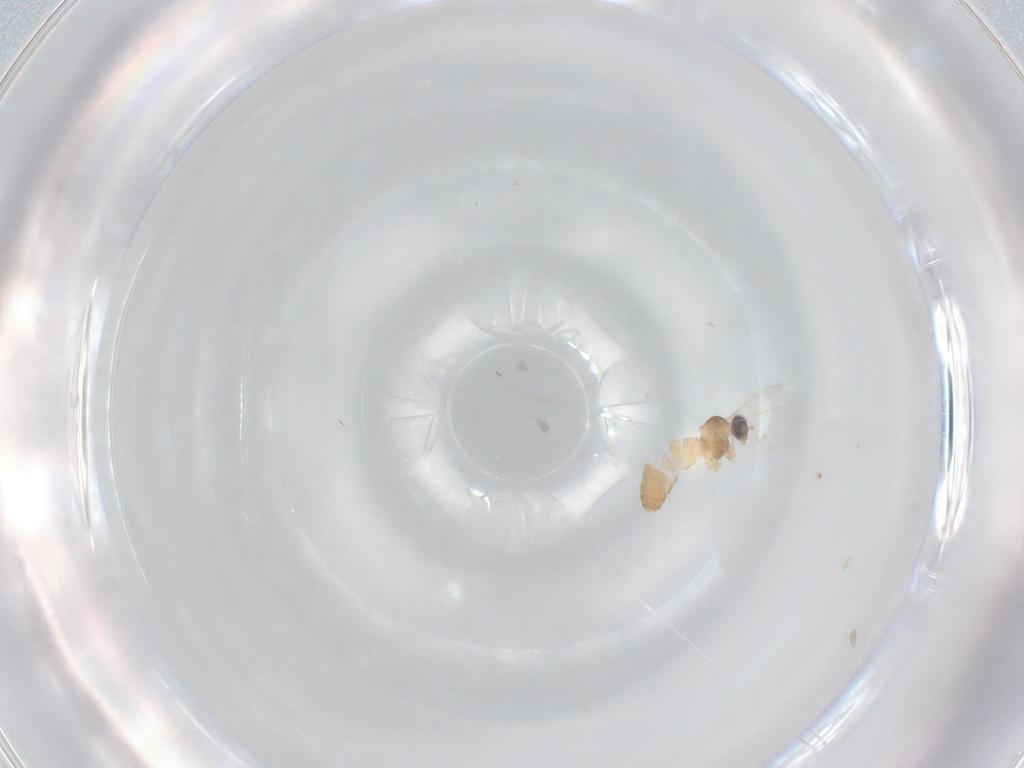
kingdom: Animalia
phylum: Arthropoda
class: Insecta
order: Diptera
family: Cecidomyiidae
